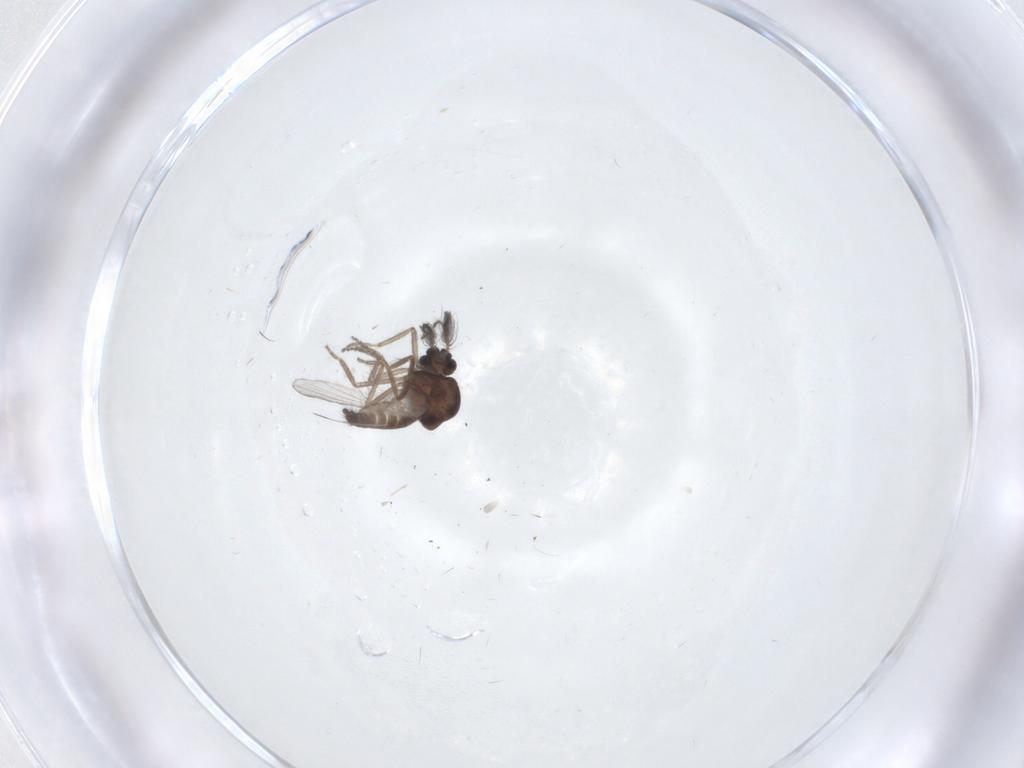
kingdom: Animalia
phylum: Arthropoda
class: Insecta
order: Diptera
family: Ceratopogonidae
